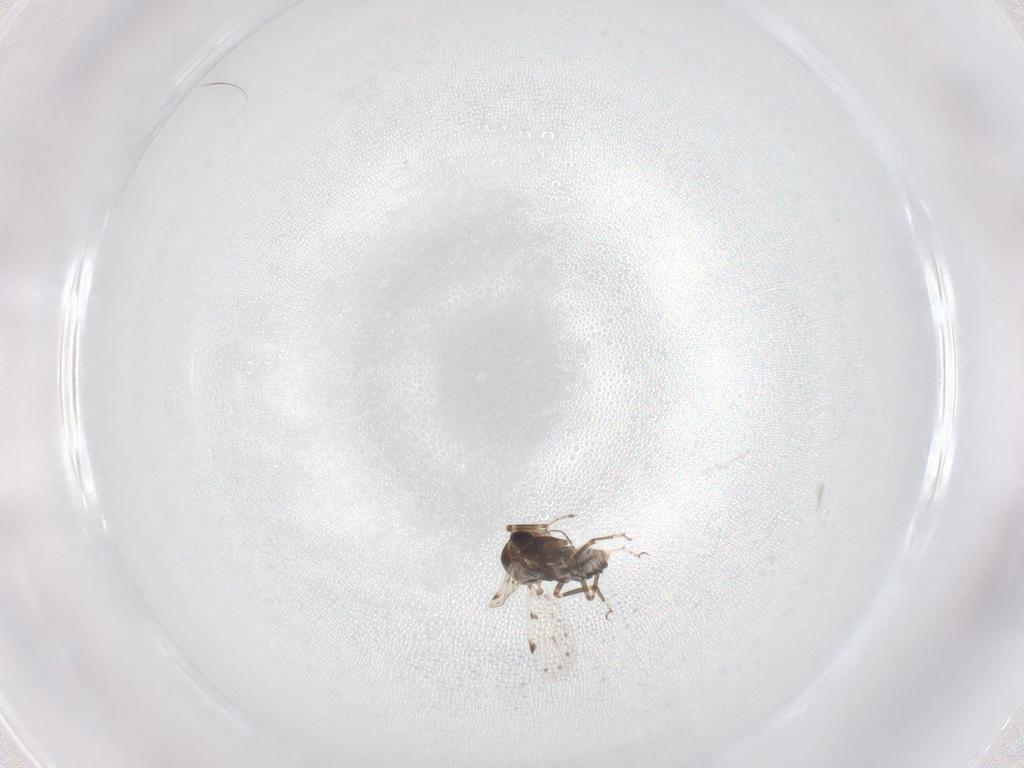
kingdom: Animalia
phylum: Arthropoda
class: Insecta
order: Diptera
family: Ceratopogonidae
